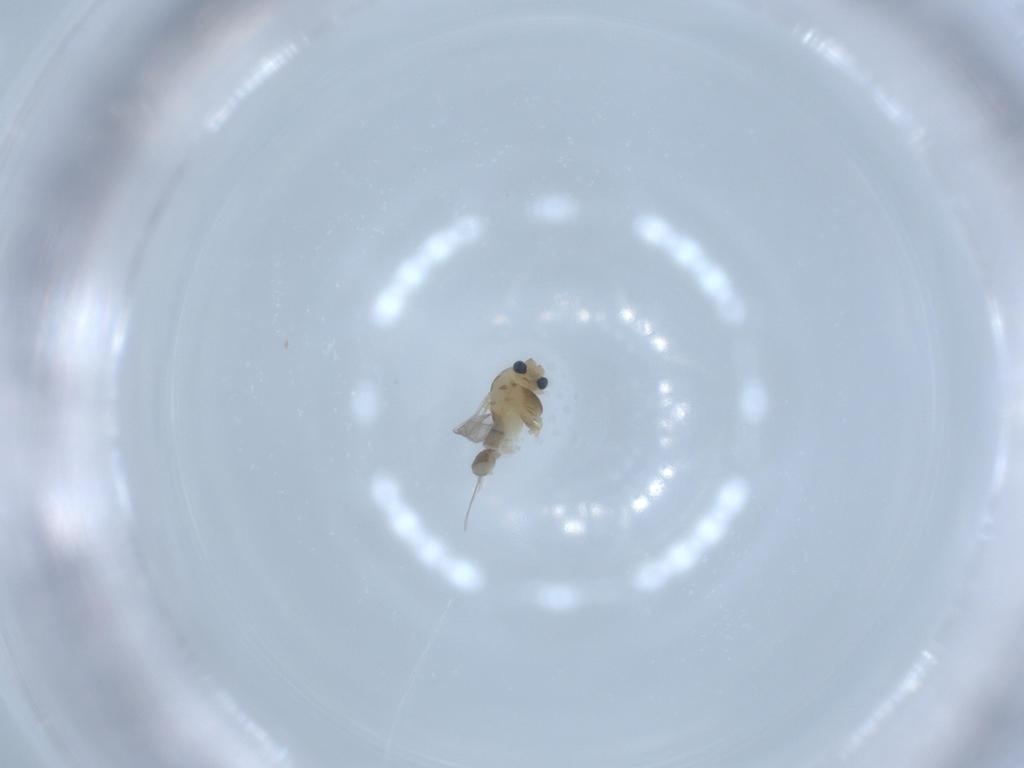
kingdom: Animalia
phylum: Arthropoda
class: Insecta
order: Diptera
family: Chironomidae
